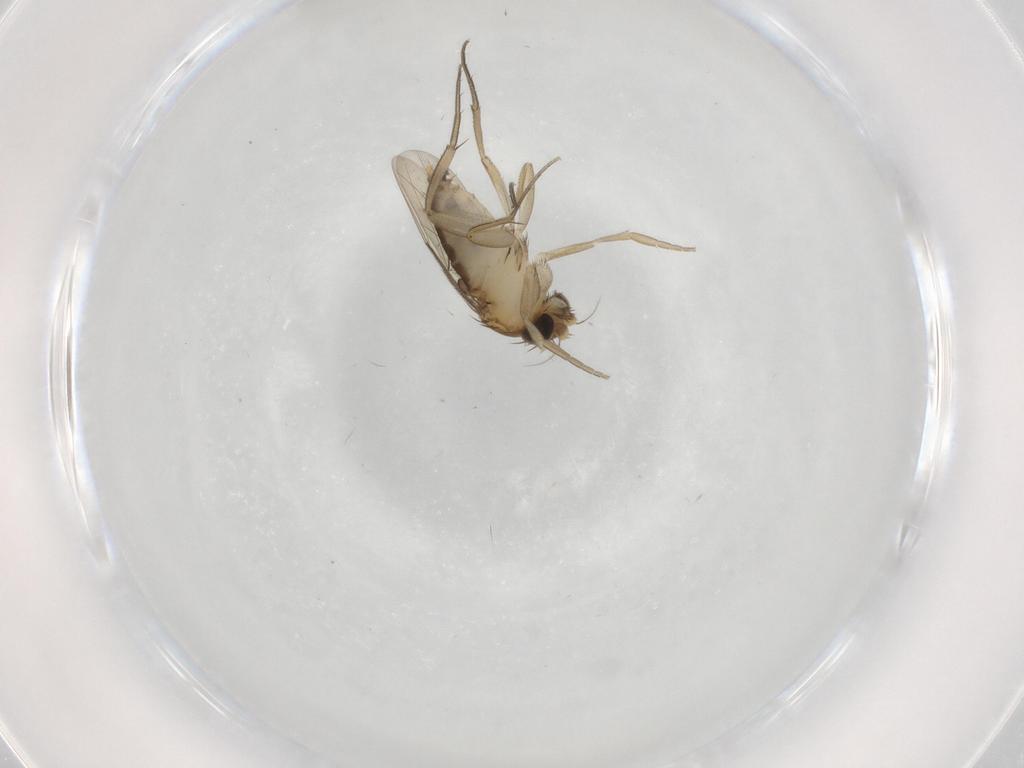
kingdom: Animalia
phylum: Arthropoda
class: Insecta
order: Diptera
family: Phoridae
